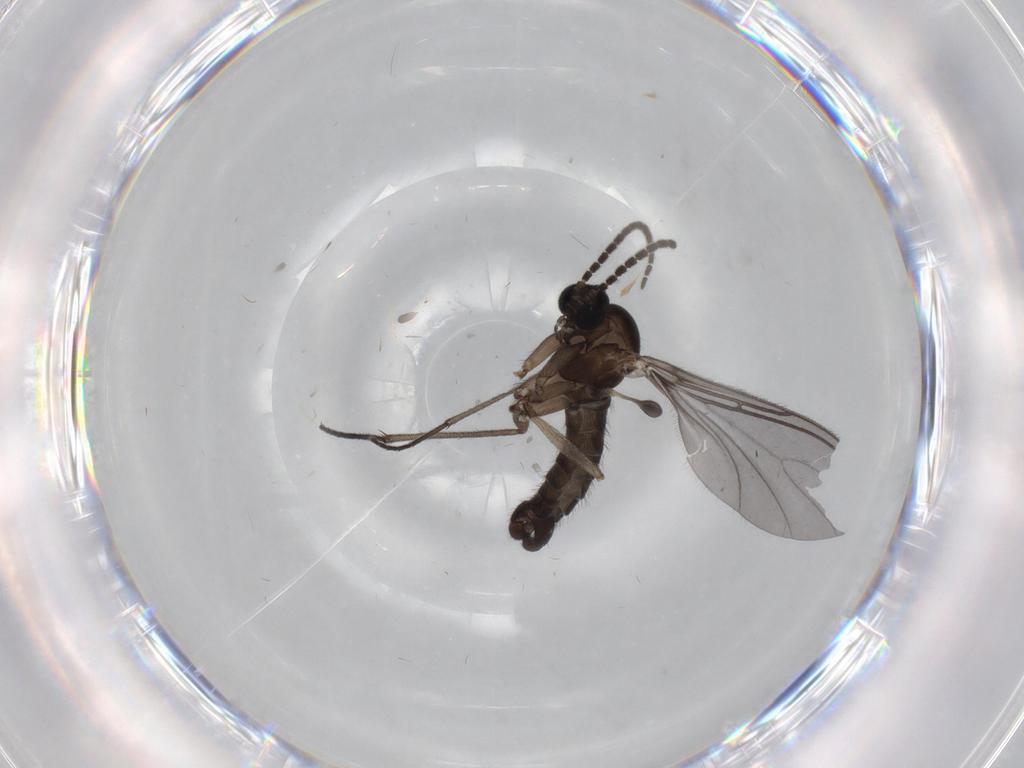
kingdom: Animalia
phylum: Arthropoda
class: Insecta
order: Diptera
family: Sciaridae
